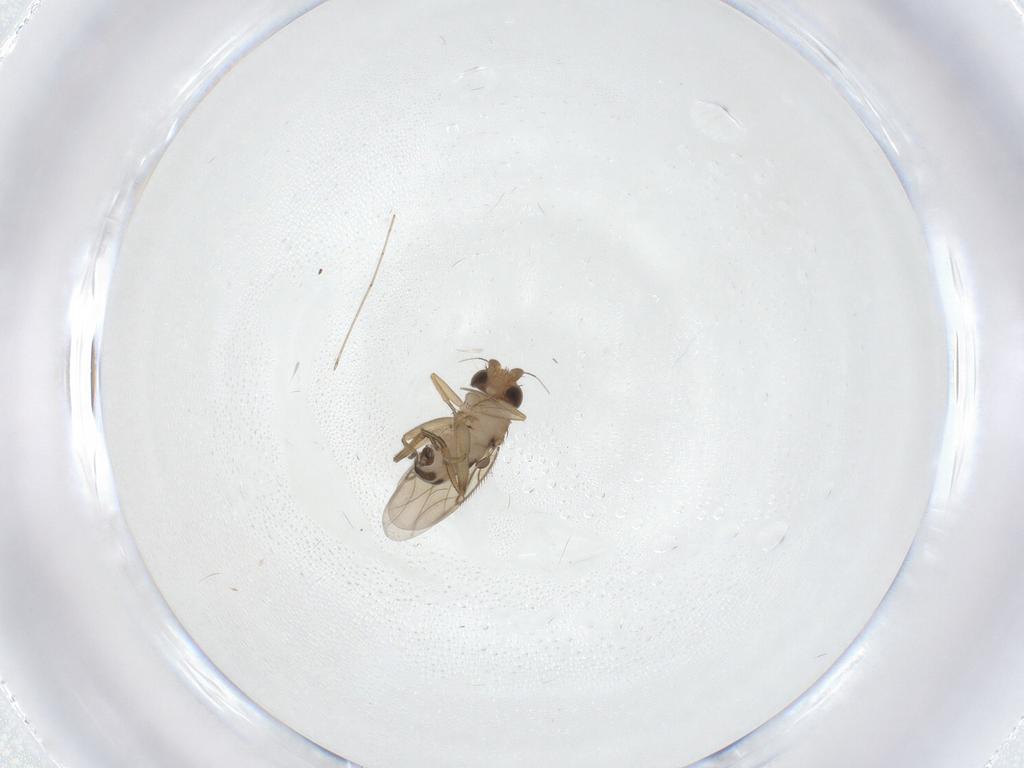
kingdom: Animalia
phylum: Arthropoda
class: Insecta
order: Diptera
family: Phoridae
